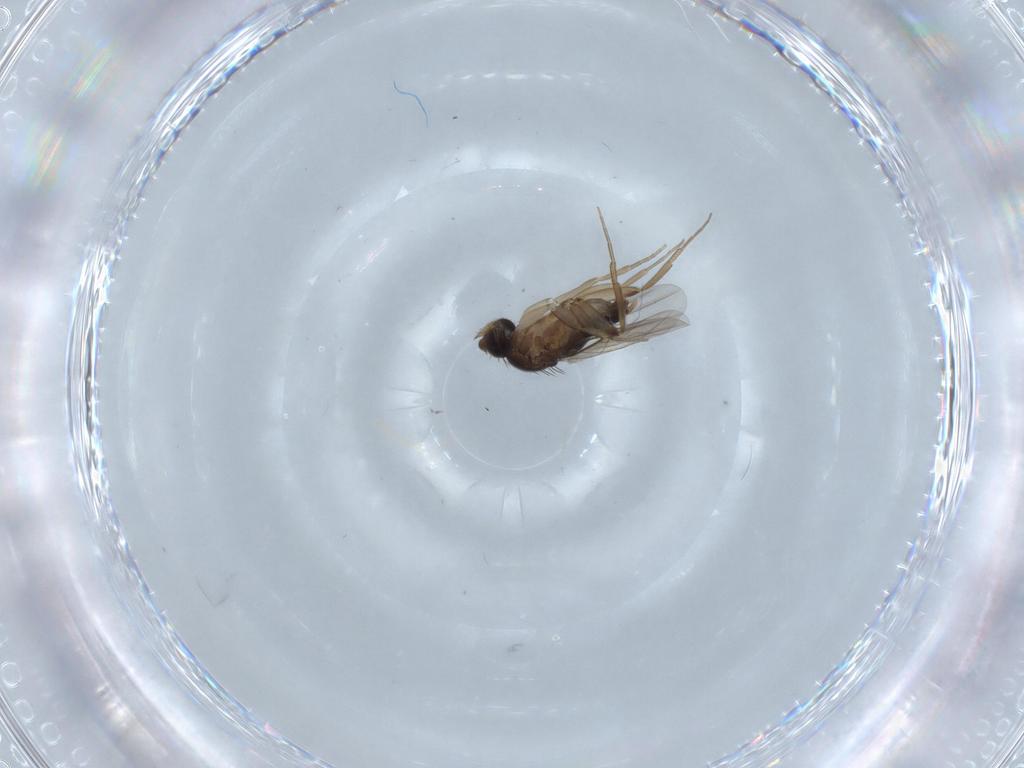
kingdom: Animalia
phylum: Arthropoda
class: Insecta
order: Diptera
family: Phoridae
